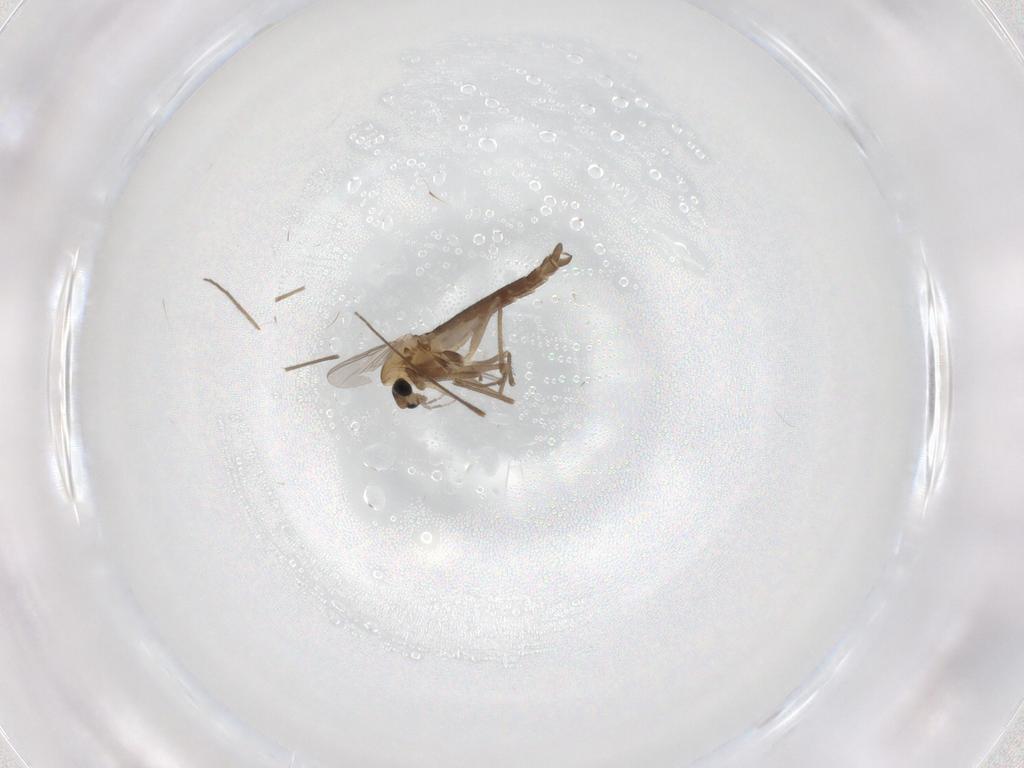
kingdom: Animalia
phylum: Arthropoda
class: Insecta
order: Diptera
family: Chironomidae
